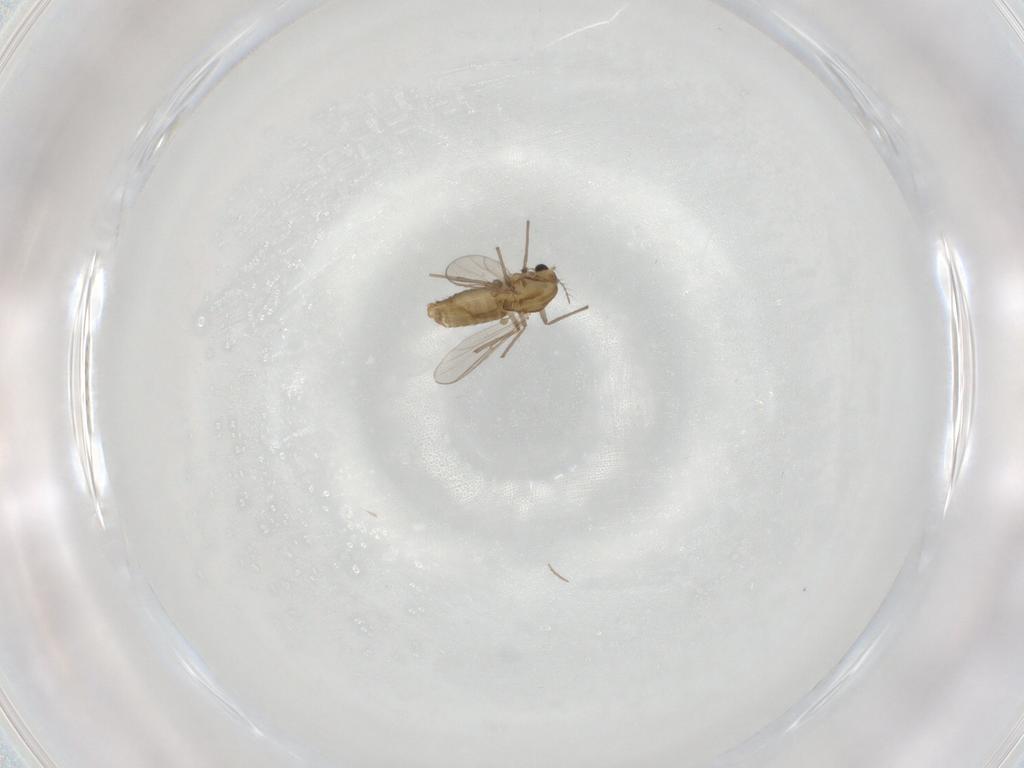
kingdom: Animalia
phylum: Arthropoda
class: Insecta
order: Diptera
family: Chironomidae
